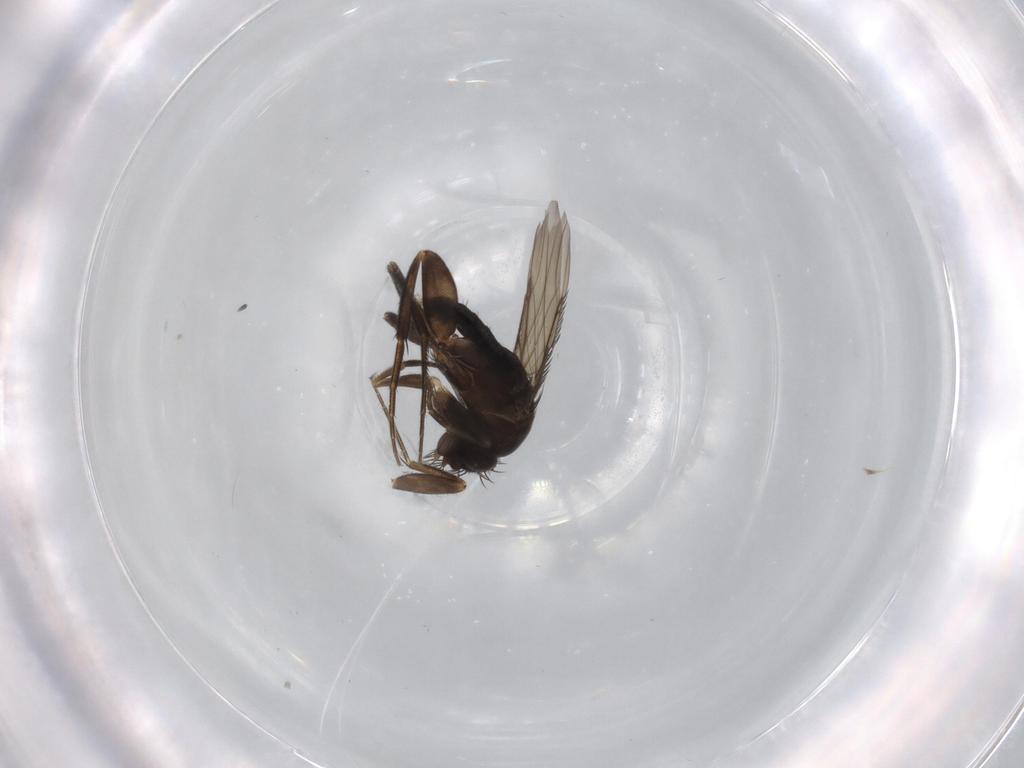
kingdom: Animalia
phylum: Arthropoda
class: Insecta
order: Diptera
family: Phoridae
